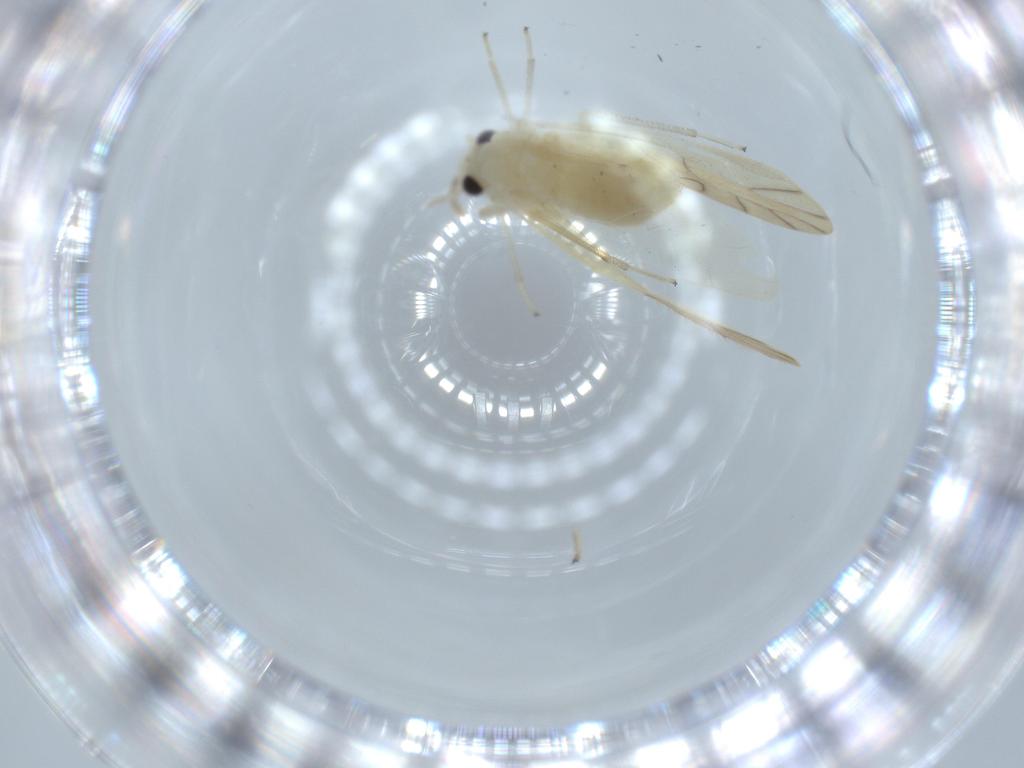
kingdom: Animalia
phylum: Arthropoda
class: Insecta
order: Psocodea
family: Caeciliusidae
